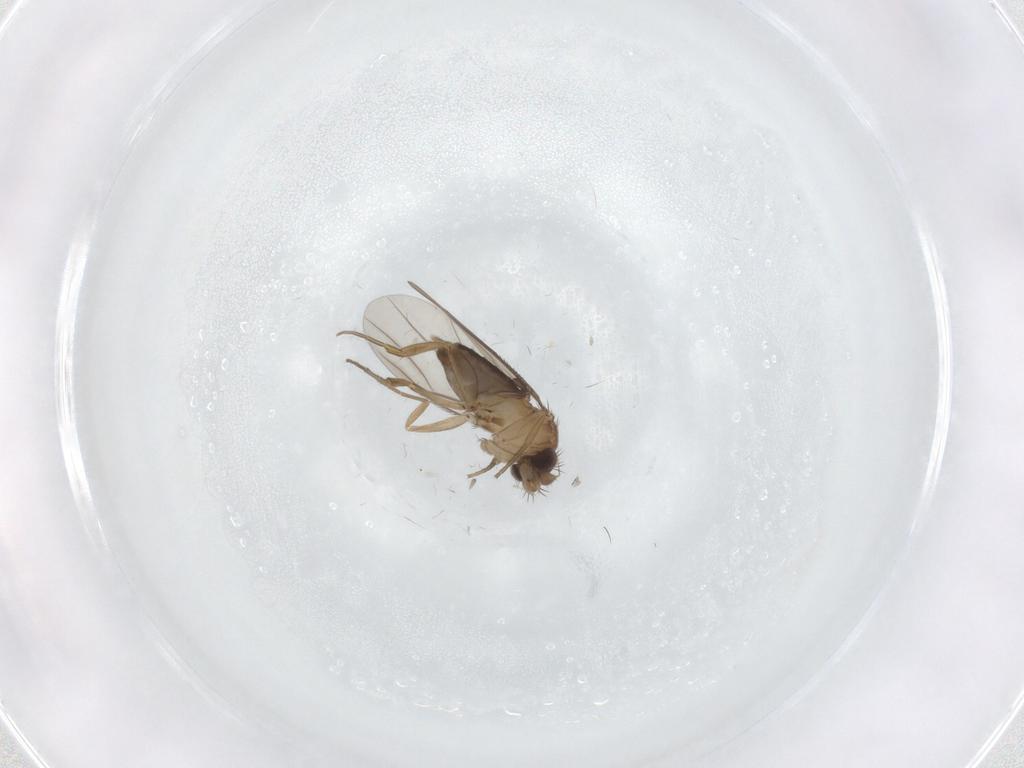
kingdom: Animalia
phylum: Arthropoda
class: Insecta
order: Diptera
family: Phoridae
